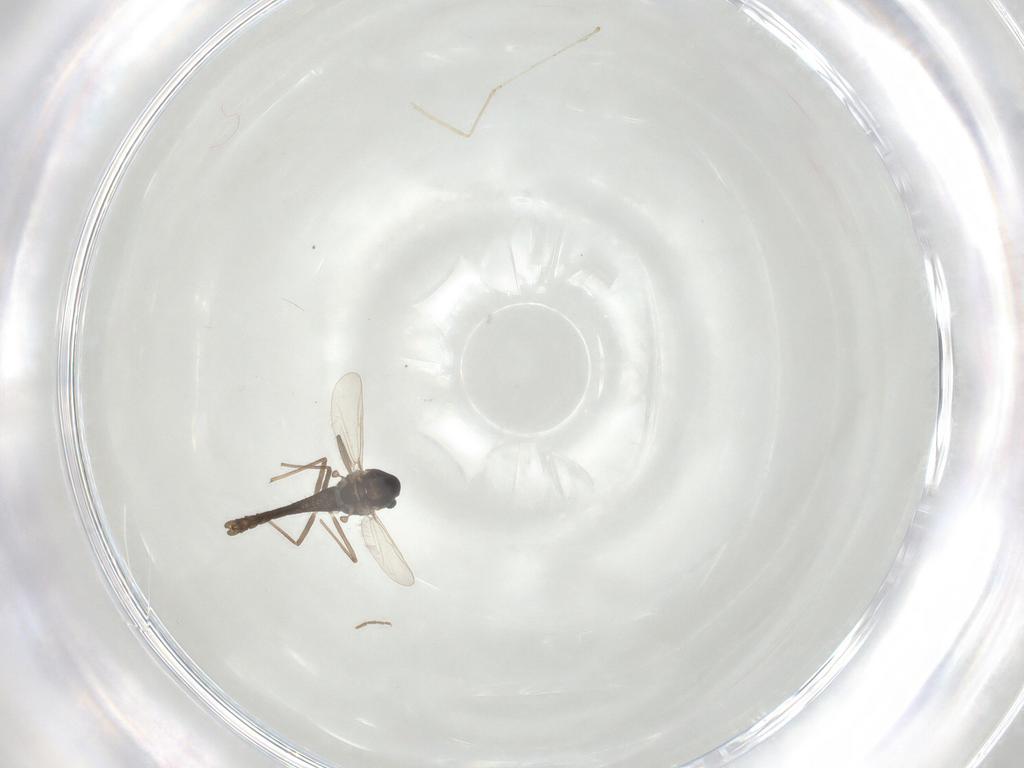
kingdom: Animalia
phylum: Arthropoda
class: Insecta
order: Diptera
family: Chironomidae
